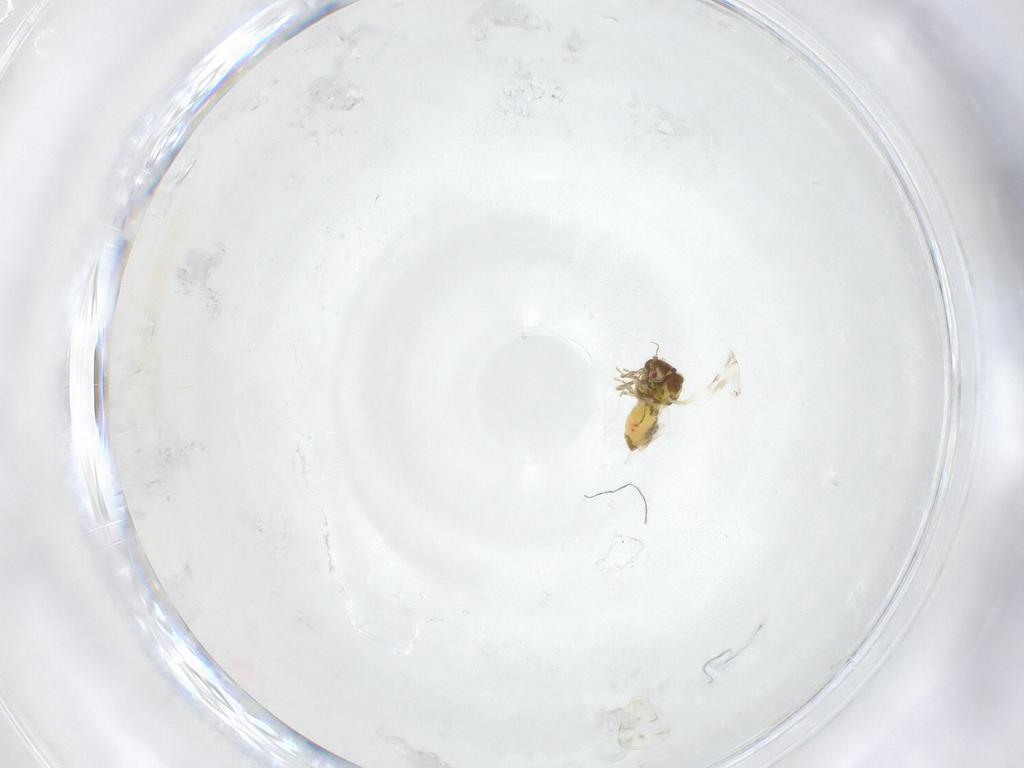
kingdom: Animalia
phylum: Arthropoda
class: Insecta
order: Hemiptera
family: Aleyrodidae
